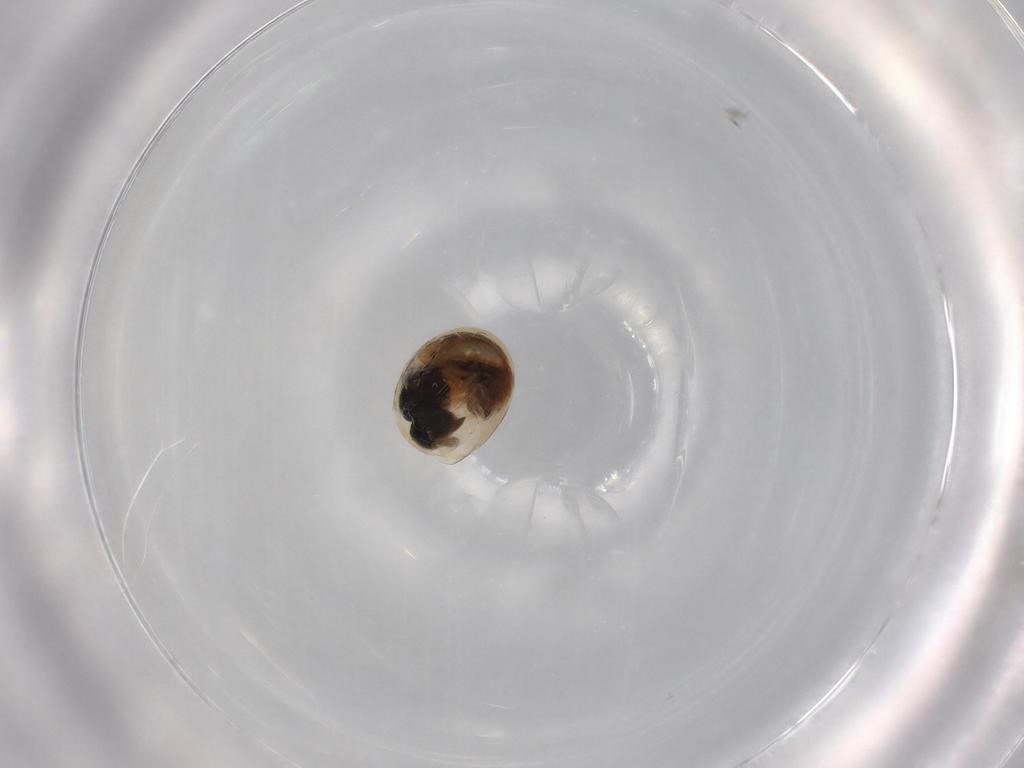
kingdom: Animalia
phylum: Arthropoda
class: Insecta
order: Hymenoptera
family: Scelionidae
